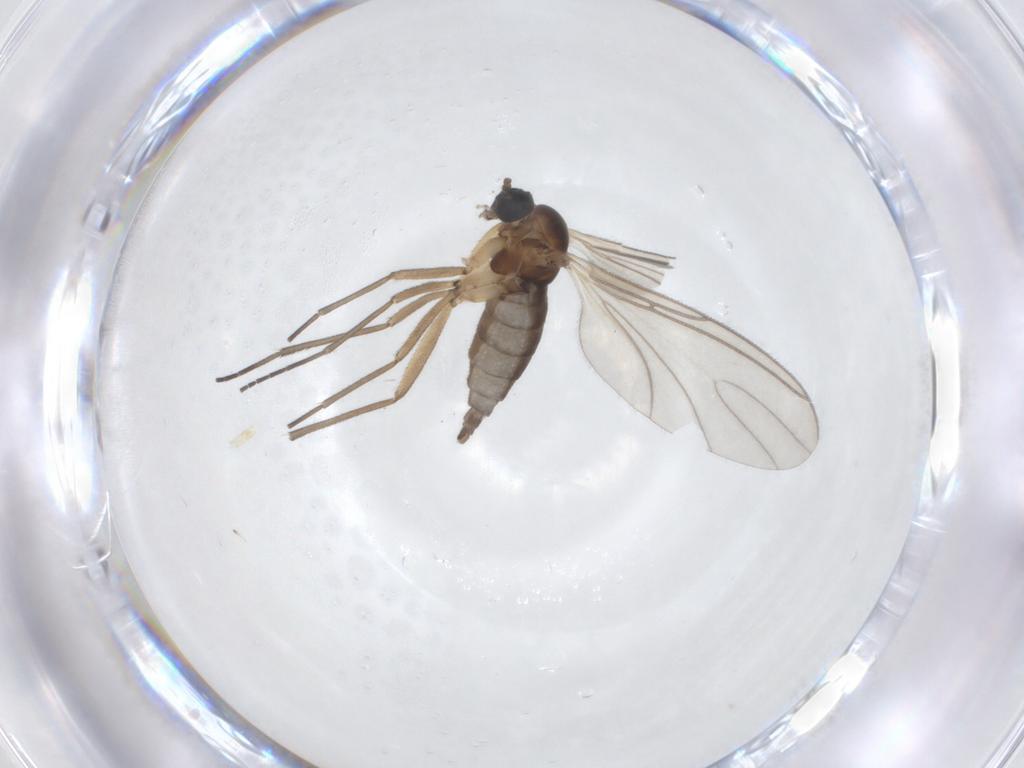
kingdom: Animalia
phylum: Arthropoda
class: Insecta
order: Diptera
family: Sciaridae
